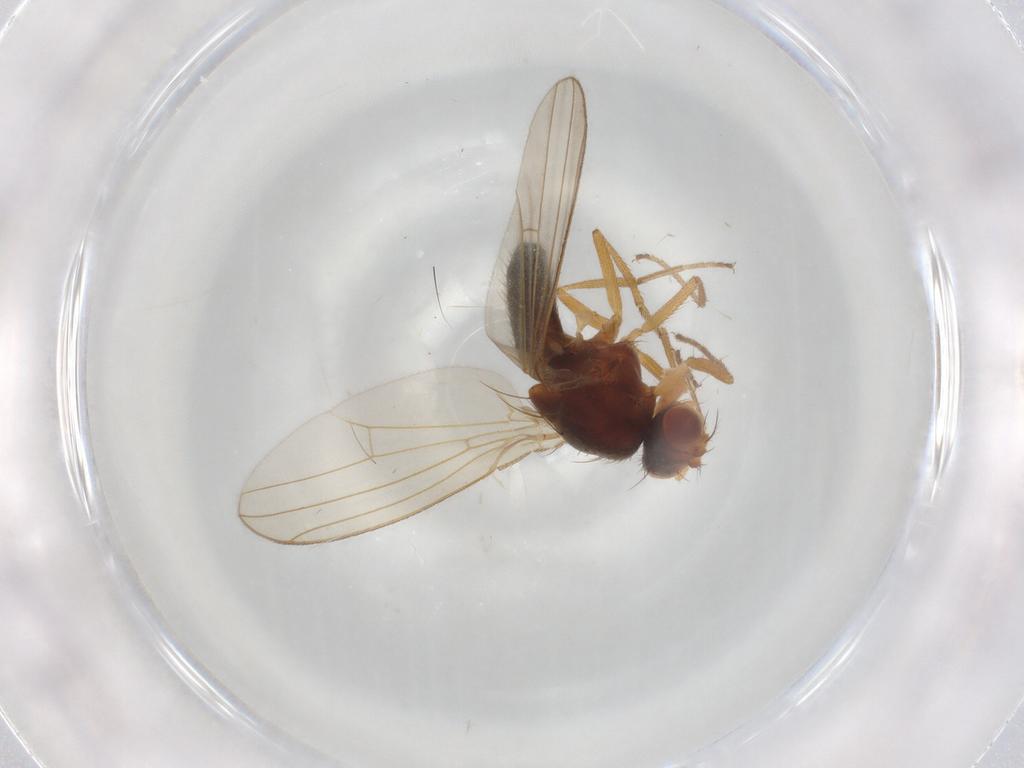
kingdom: Animalia
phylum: Arthropoda
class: Insecta
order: Diptera
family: Drosophilidae
